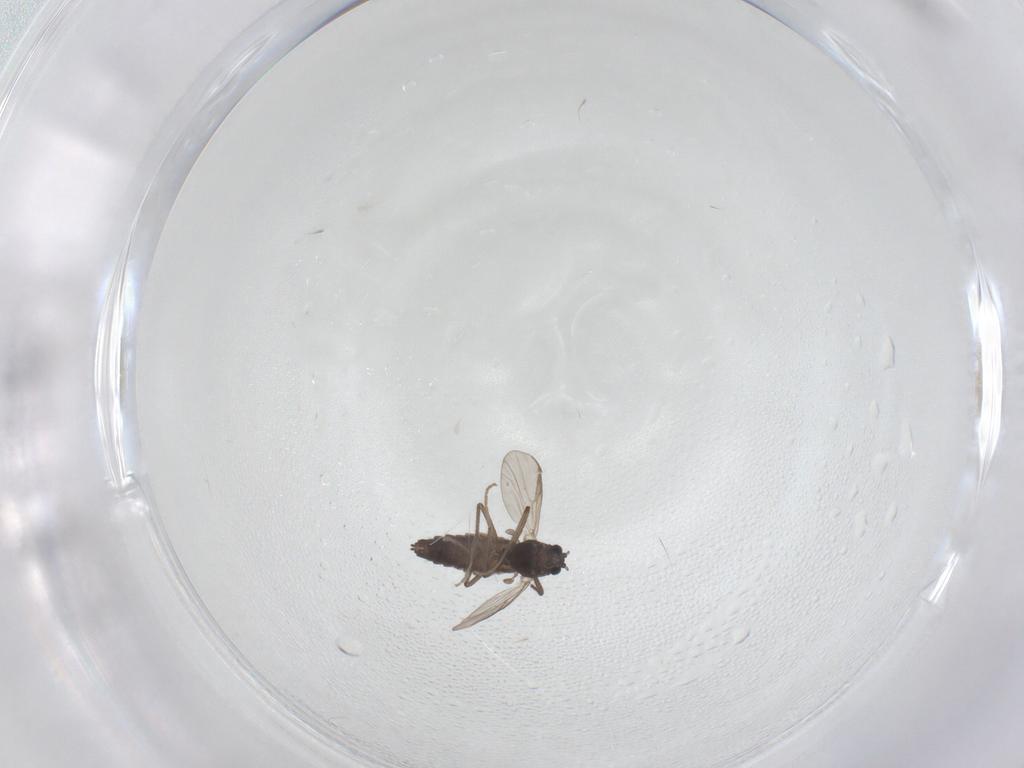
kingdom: Animalia
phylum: Arthropoda
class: Insecta
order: Diptera
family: Chironomidae
